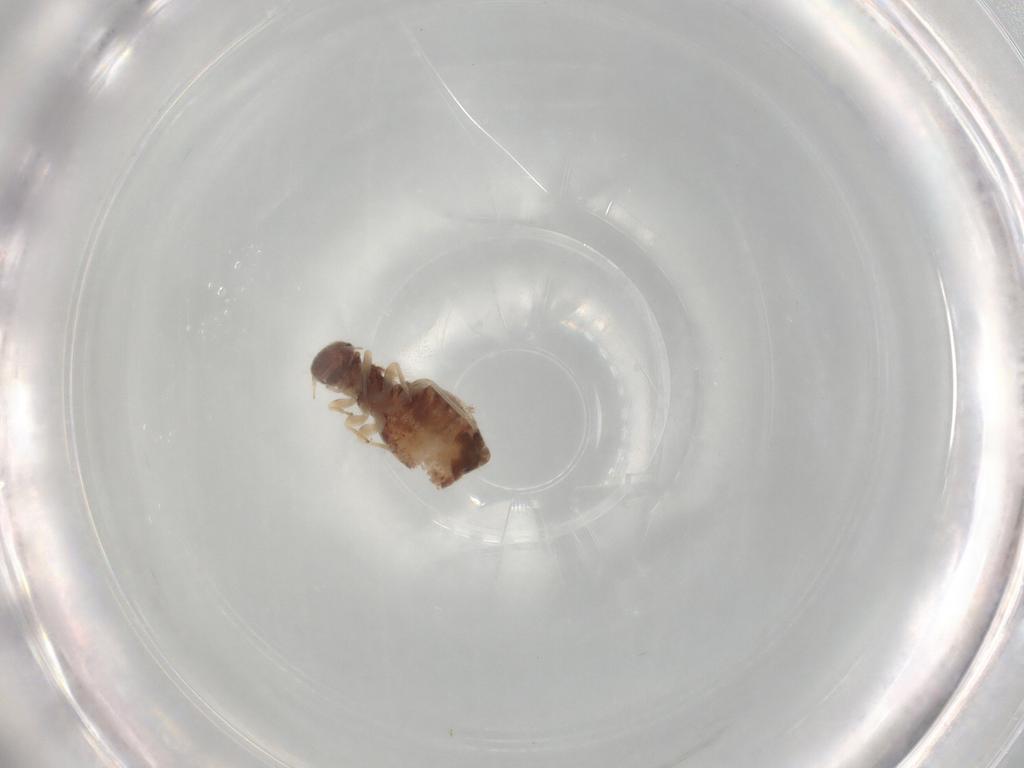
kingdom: Animalia
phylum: Arthropoda
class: Insecta
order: Psocodea
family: Archipsocidae
